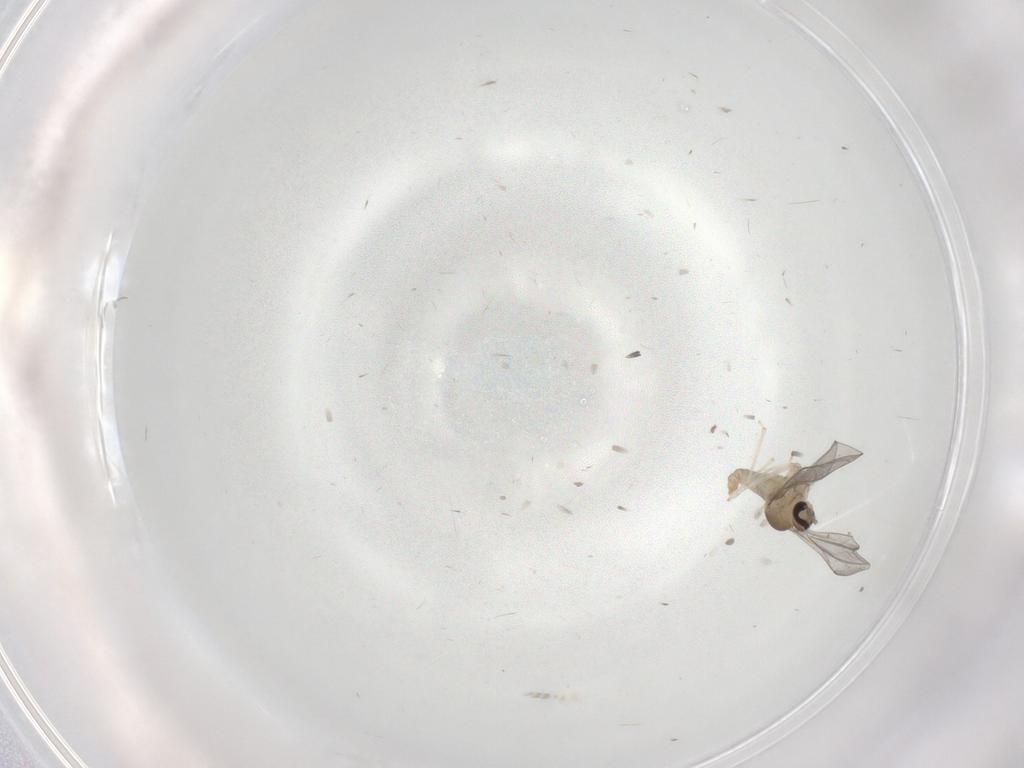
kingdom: Animalia
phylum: Arthropoda
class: Insecta
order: Diptera
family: Cecidomyiidae
